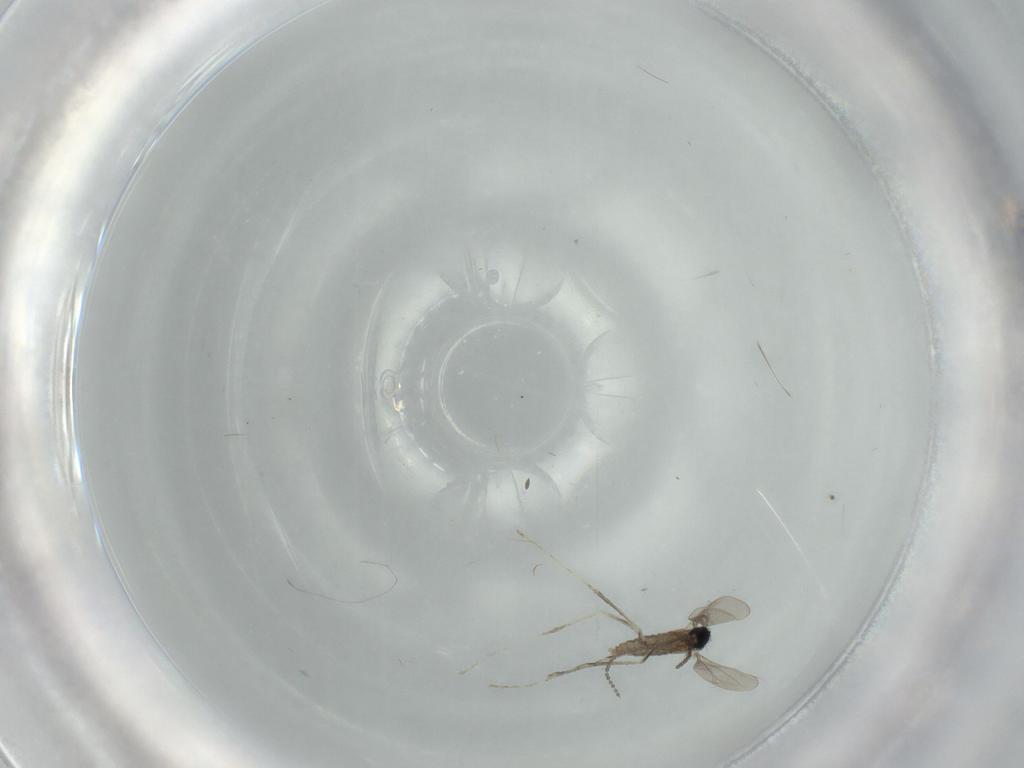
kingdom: Animalia
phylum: Arthropoda
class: Insecta
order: Diptera
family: Cecidomyiidae
